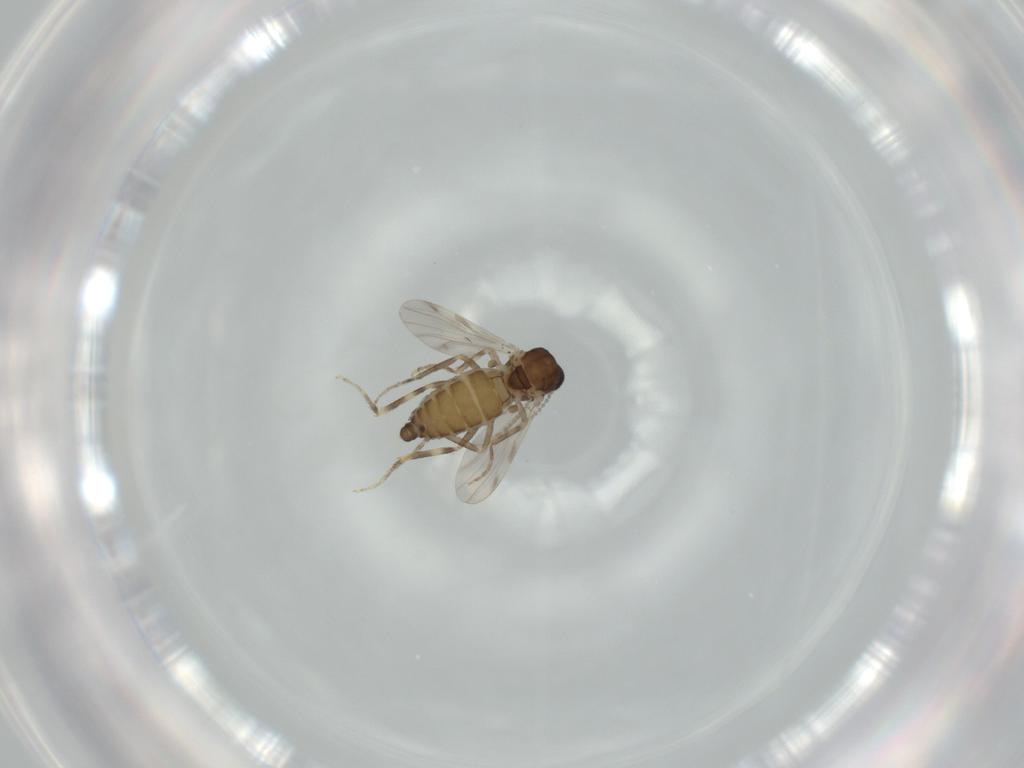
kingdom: Animalia
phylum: Arthropoda
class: Insecta
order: Diptera
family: Ceratopogonidae
